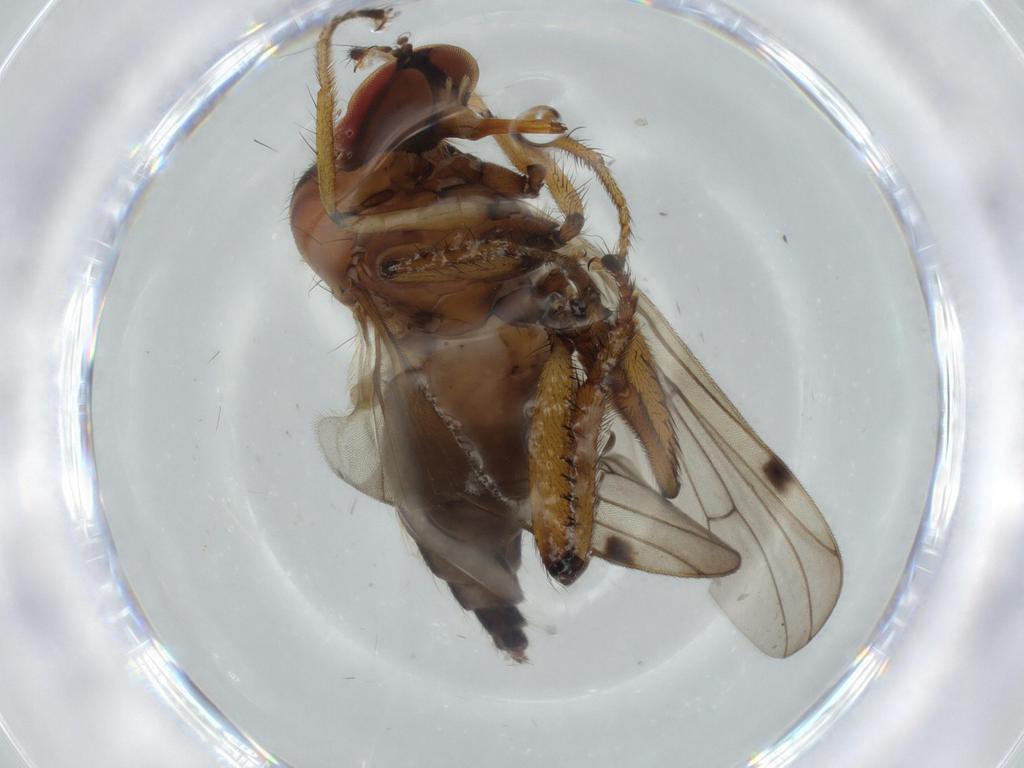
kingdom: Animalia
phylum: Arthropoda
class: Insecta
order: Diptera
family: Hybotidae
